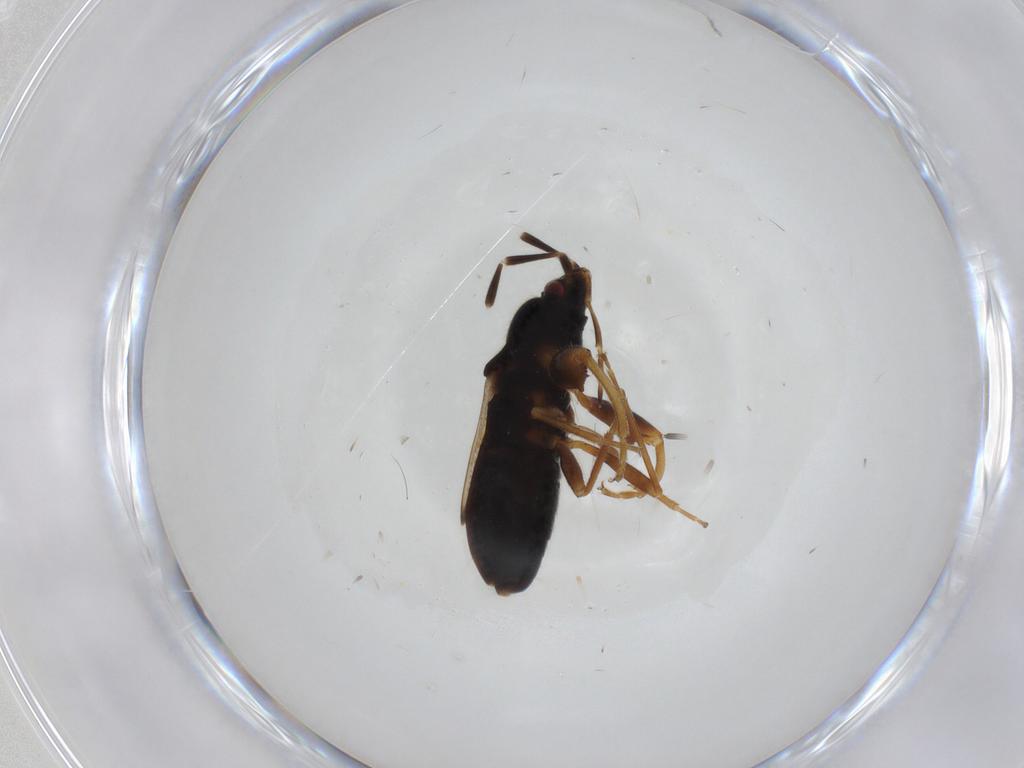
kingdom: Animalia
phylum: Arthropoda
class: Insecta
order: Hemiptera
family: Rhyparochromidae
